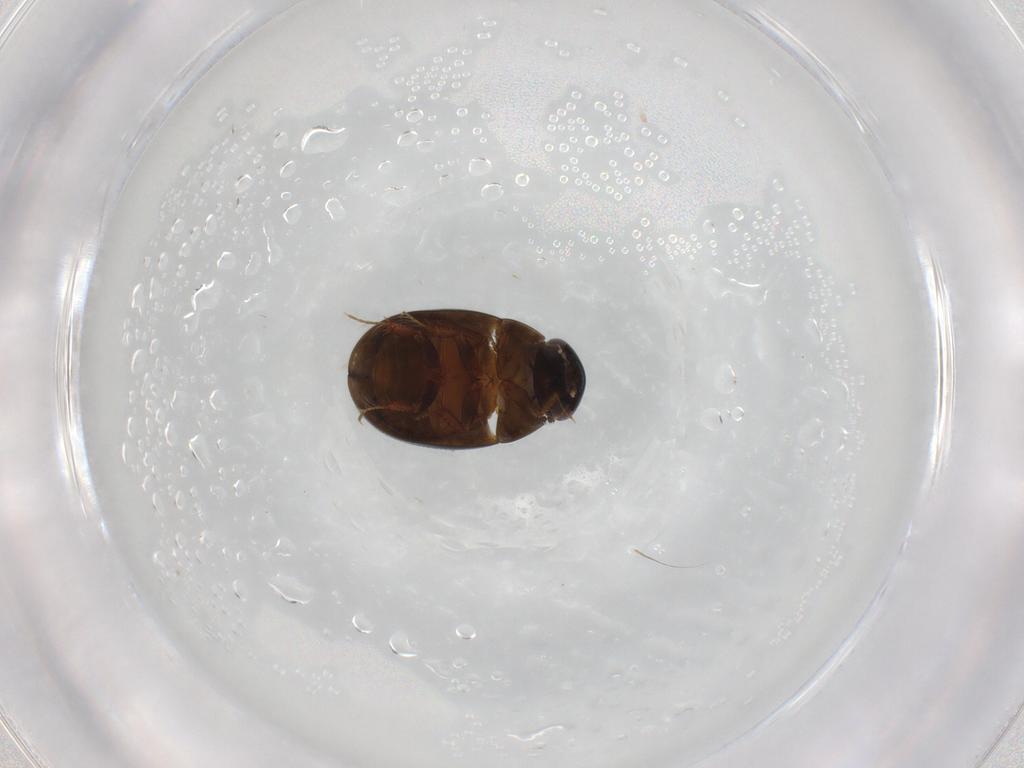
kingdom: Animalia
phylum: Arthropoda
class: Insecta
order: Coleoptera
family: Hydrophilidae
